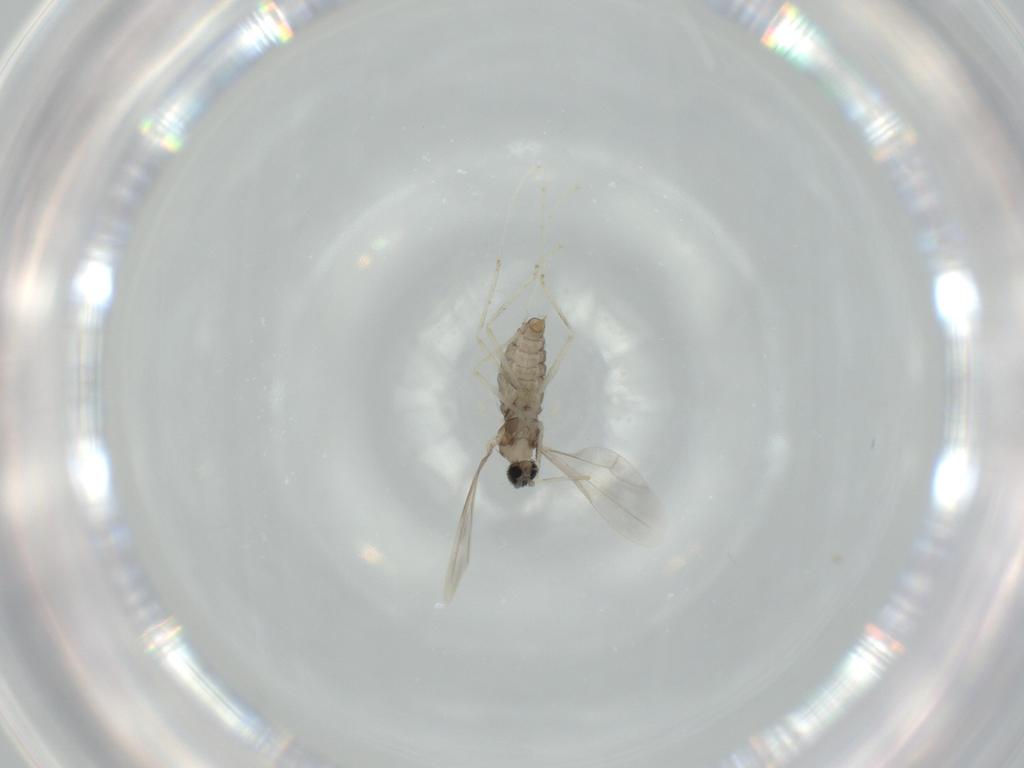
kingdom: Animalia
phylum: Arthropoda
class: Insecta
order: Diptera
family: Cecidomyiidae
